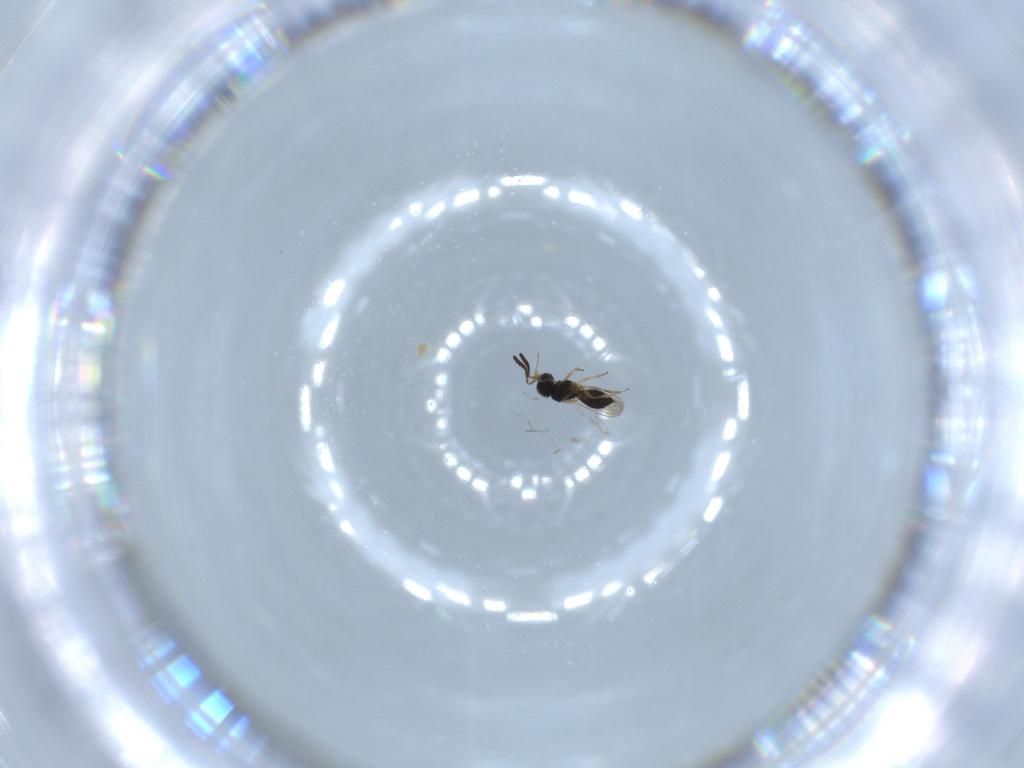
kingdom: Animalia
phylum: Arthropoda
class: Insecta
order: Hymenoptera
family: Scelionidae
